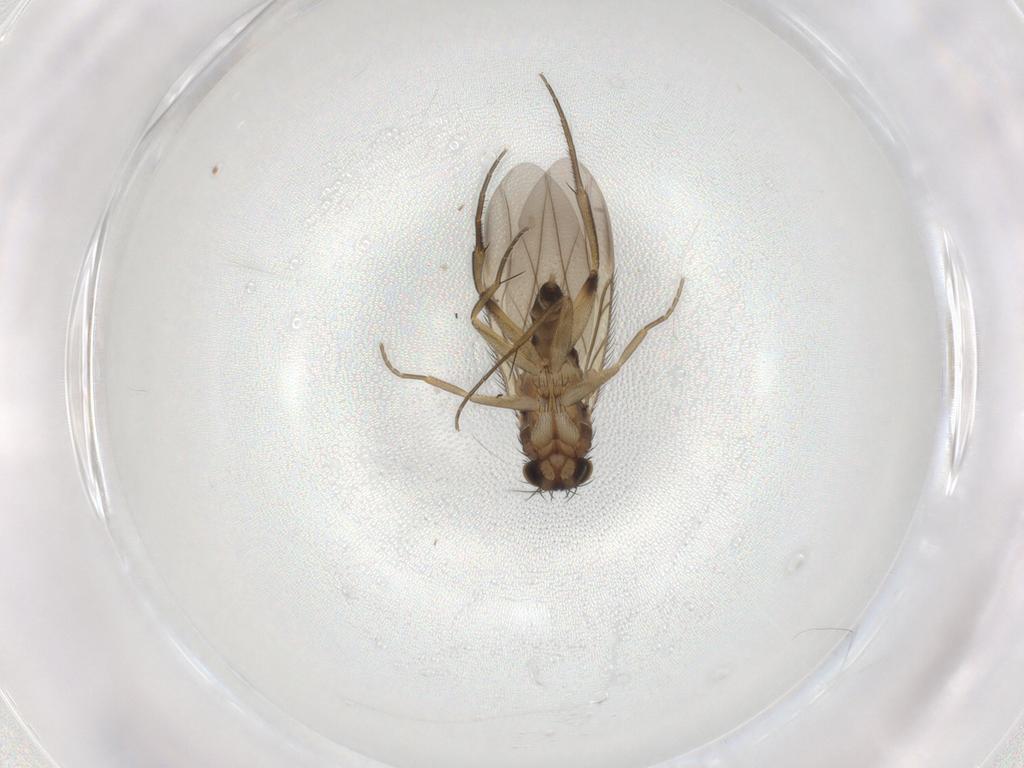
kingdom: Animalia
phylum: Arthropoda
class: Insecta
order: Diptera
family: Phoridae
